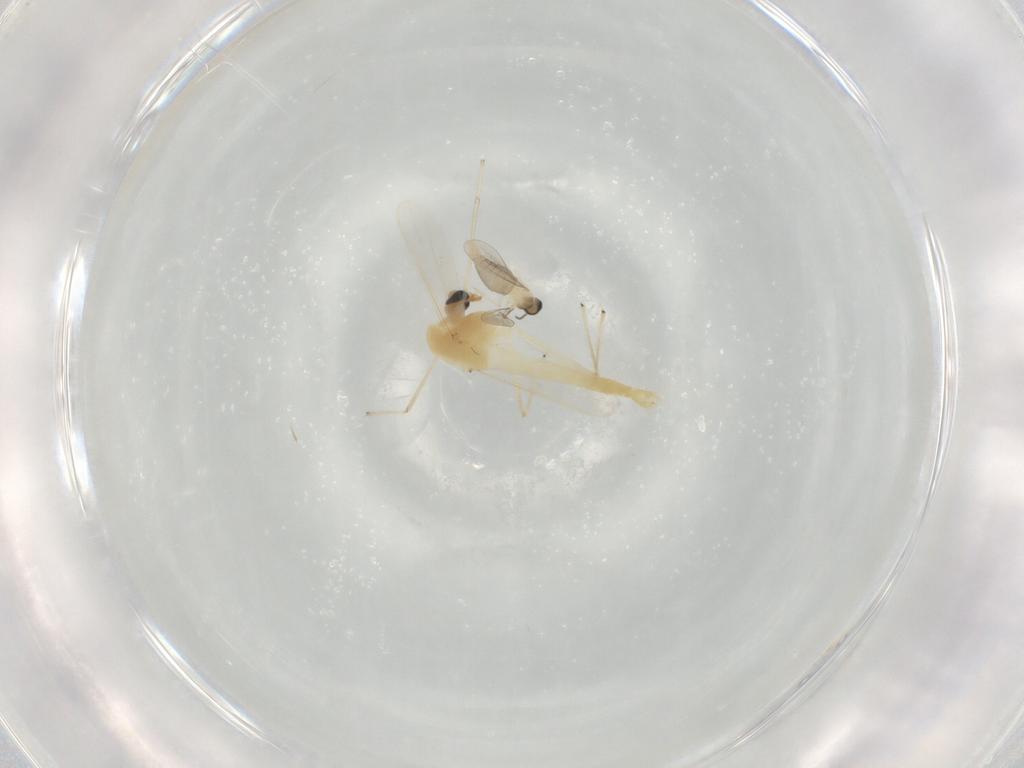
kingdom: Animalia
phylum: Arthropoda
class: Insecta
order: Diptera
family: Chironomidae
